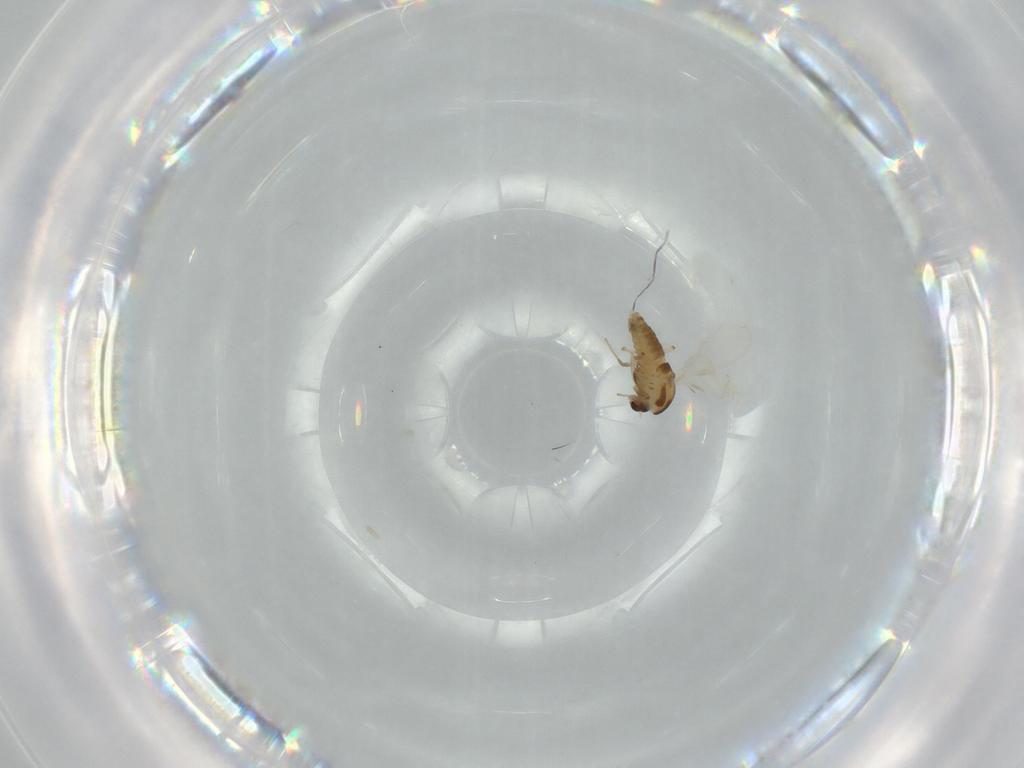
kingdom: Animalia
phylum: Arthropoda
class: Insecta
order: Diptera
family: Chironomidae
